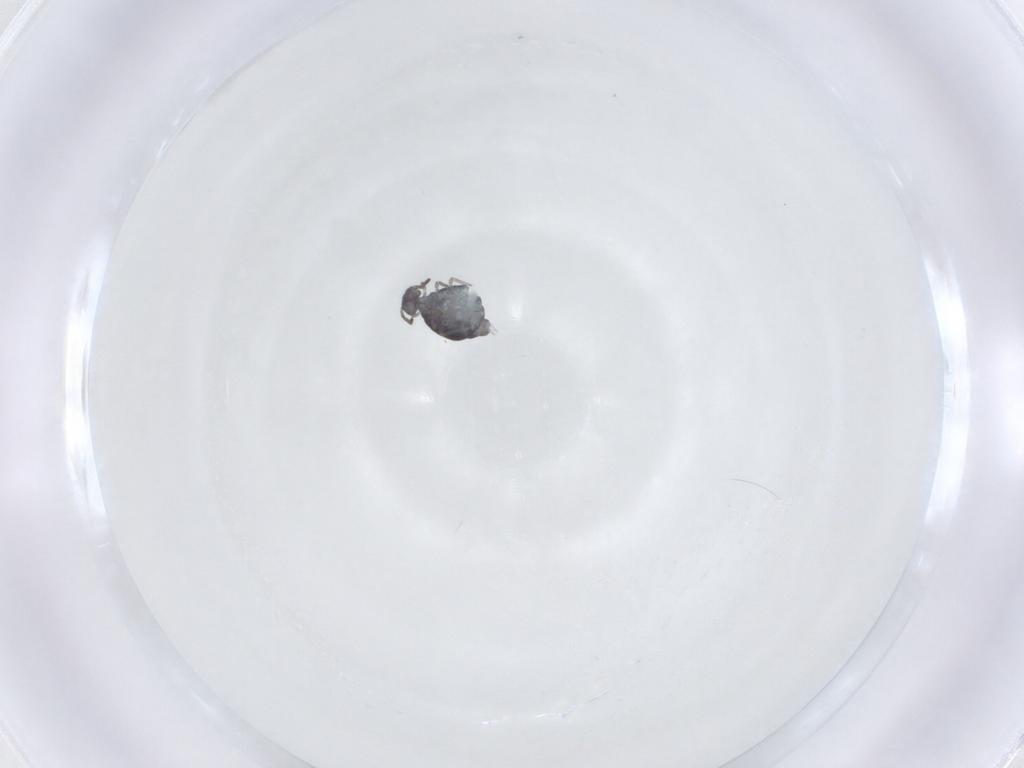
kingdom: Animalia
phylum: Arthropoda
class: Collembola
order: Symphypleona
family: Katiannidae
